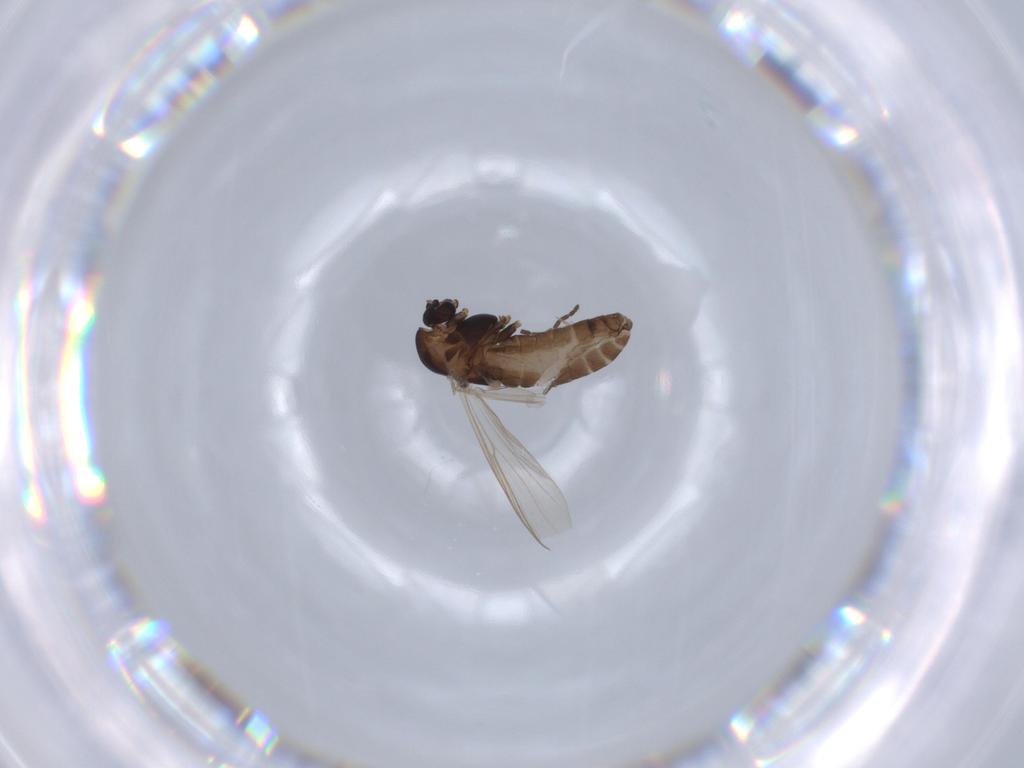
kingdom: Animalia
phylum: Arthropoda
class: Insecta
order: Diptera
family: Chironomidae
